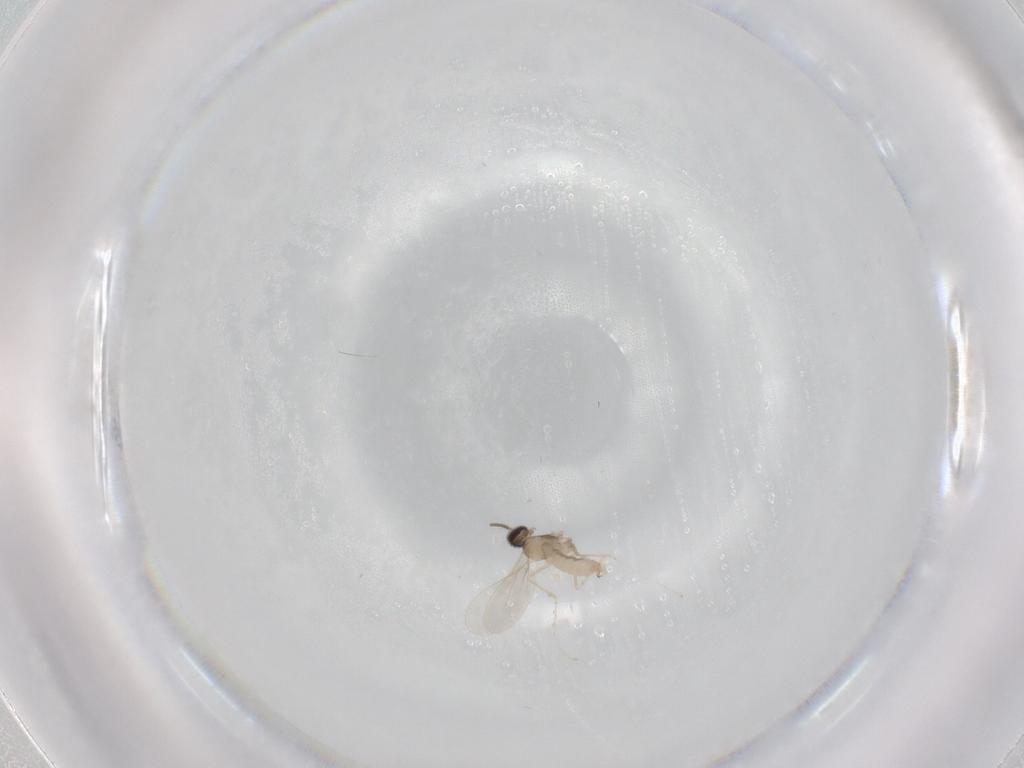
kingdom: Animalia
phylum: Arthropoda
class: Insecta
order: Diptera
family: Cecidomyiidae
